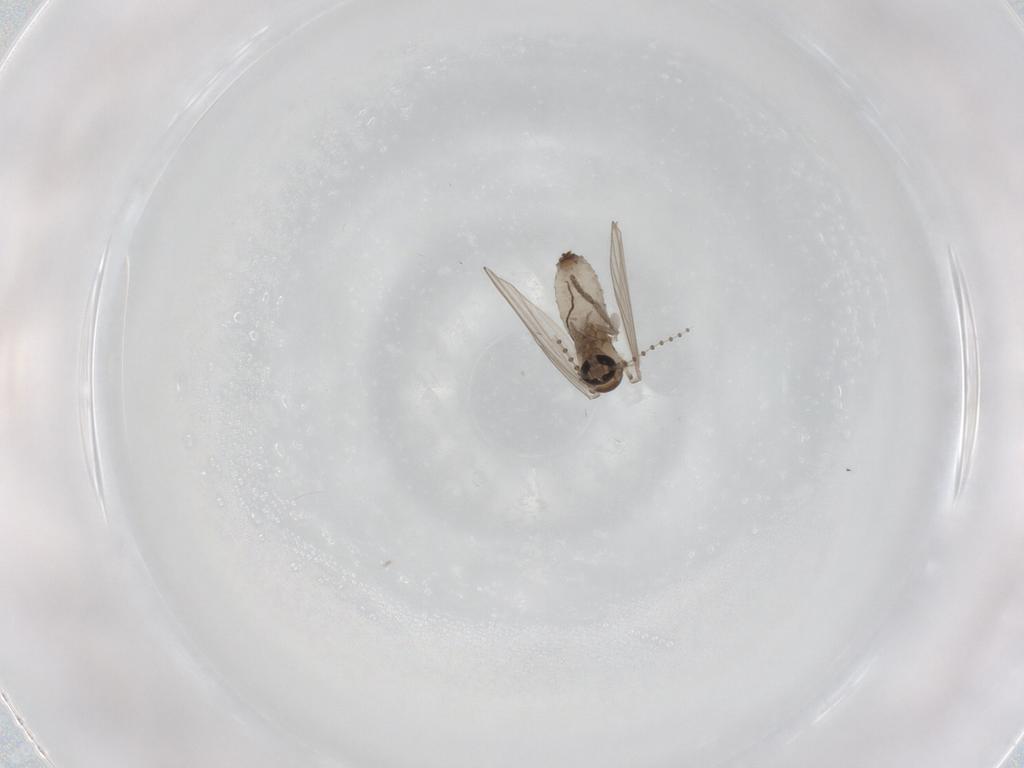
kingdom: Animalia
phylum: Arthropoda
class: Insecta
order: Diptera
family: Psychodidae
